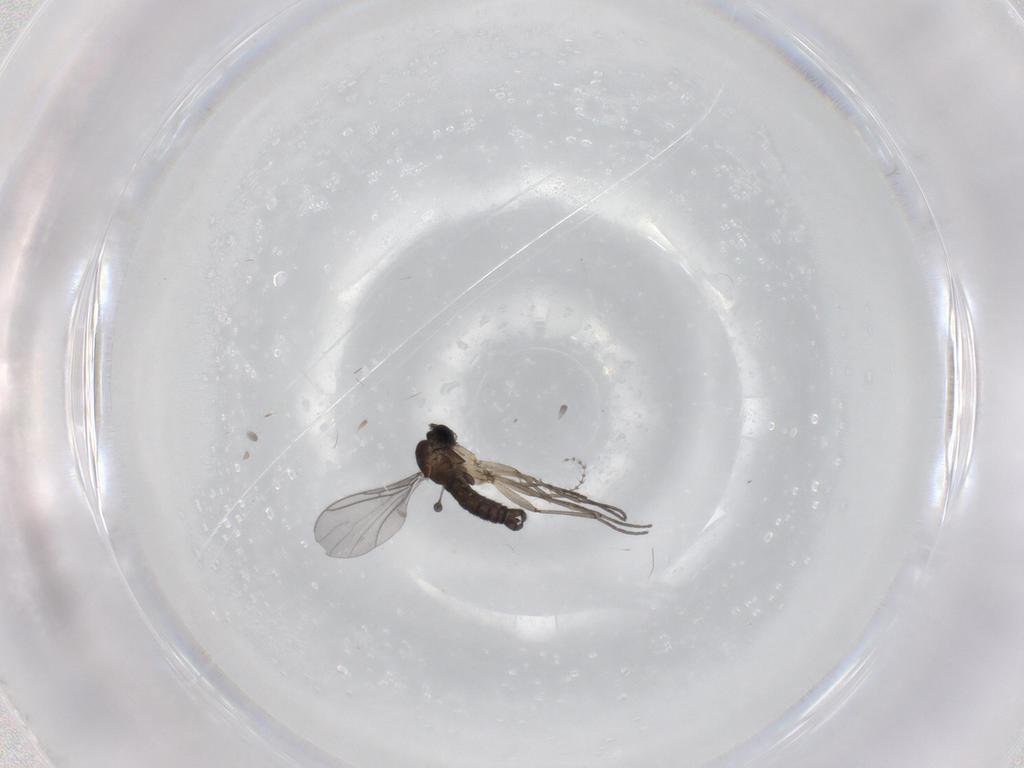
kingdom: Animalia
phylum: Arthropoda
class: Insecta
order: Diptera
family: Sciaridae
